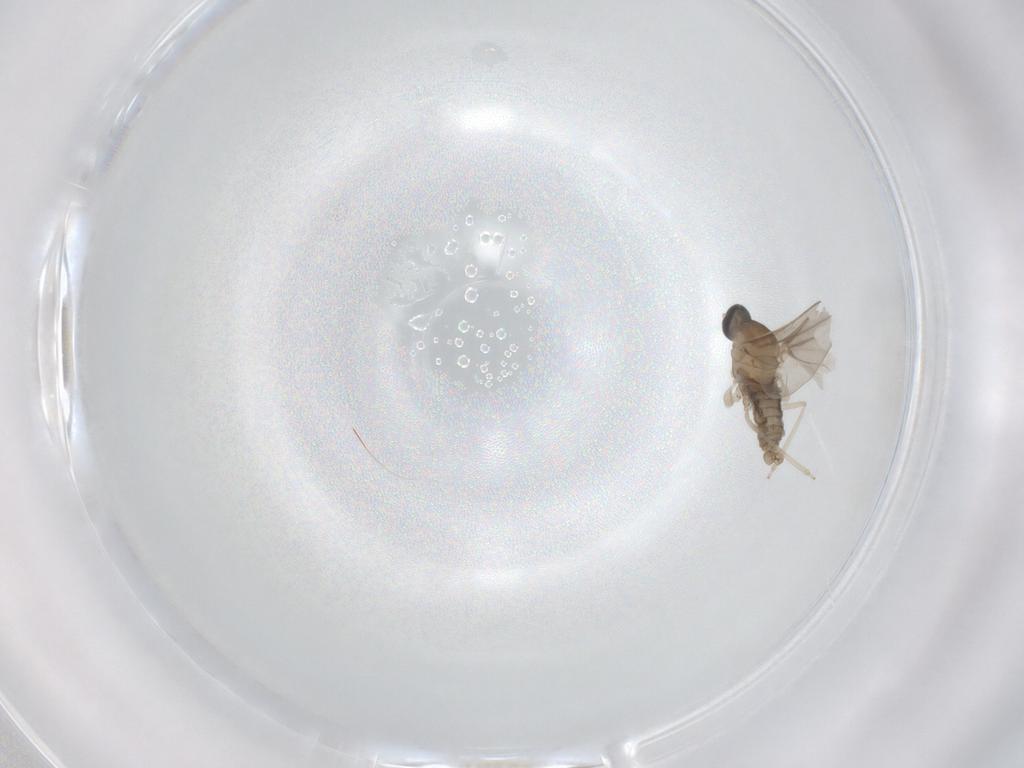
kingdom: Animalia
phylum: Arthropoda
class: Insecta
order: Diptera
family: Cecidomyiidae
